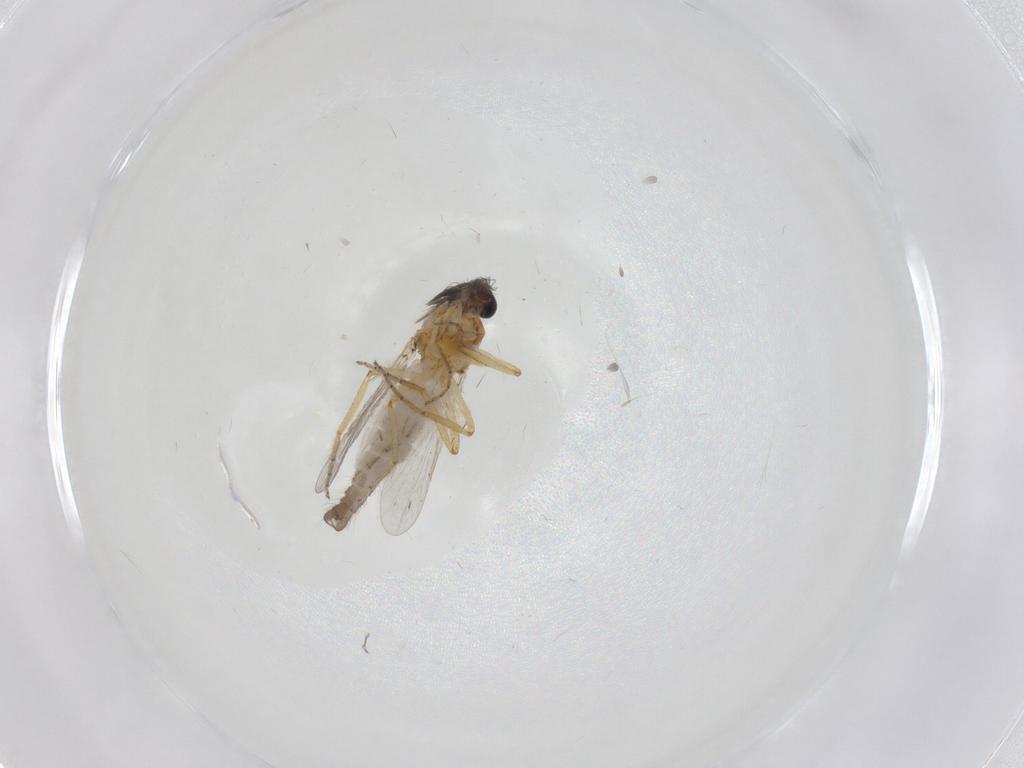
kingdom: Animalia
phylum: Arthropoda
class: Insecta
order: Diptera
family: Ceratopogonidae
